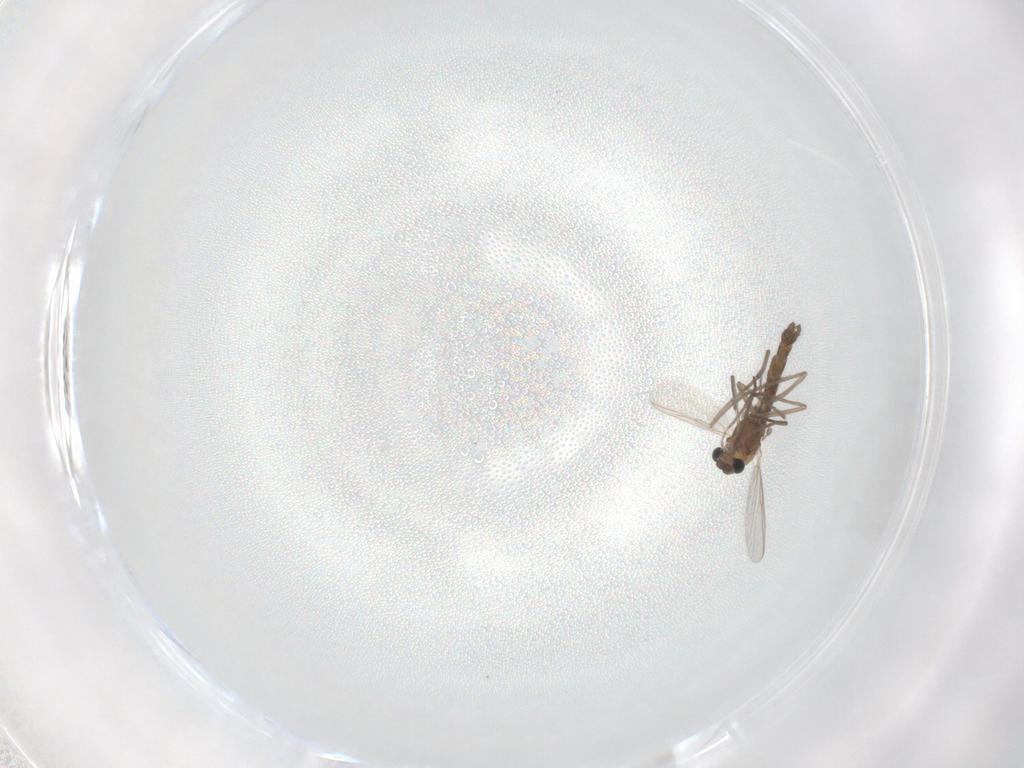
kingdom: Animalia
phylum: Arthropoda
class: Insecta
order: Diptera
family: Chironomidae
